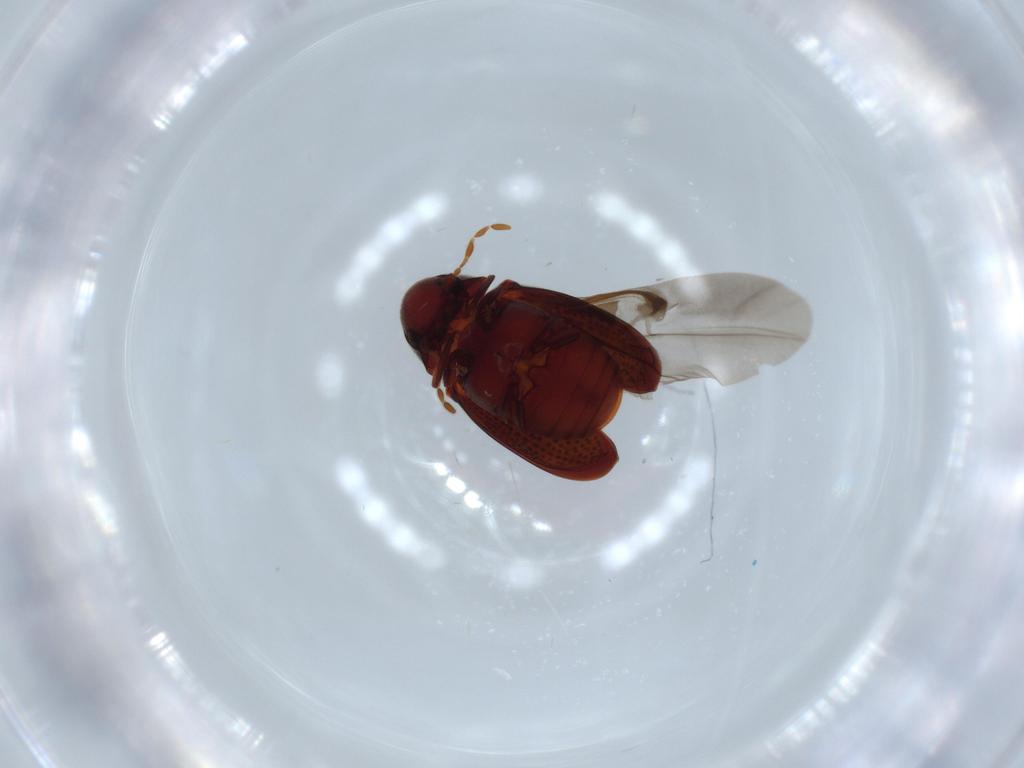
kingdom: Animalia
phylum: Arthropoda
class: Insecta
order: Coleoptera
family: Ptinidae
